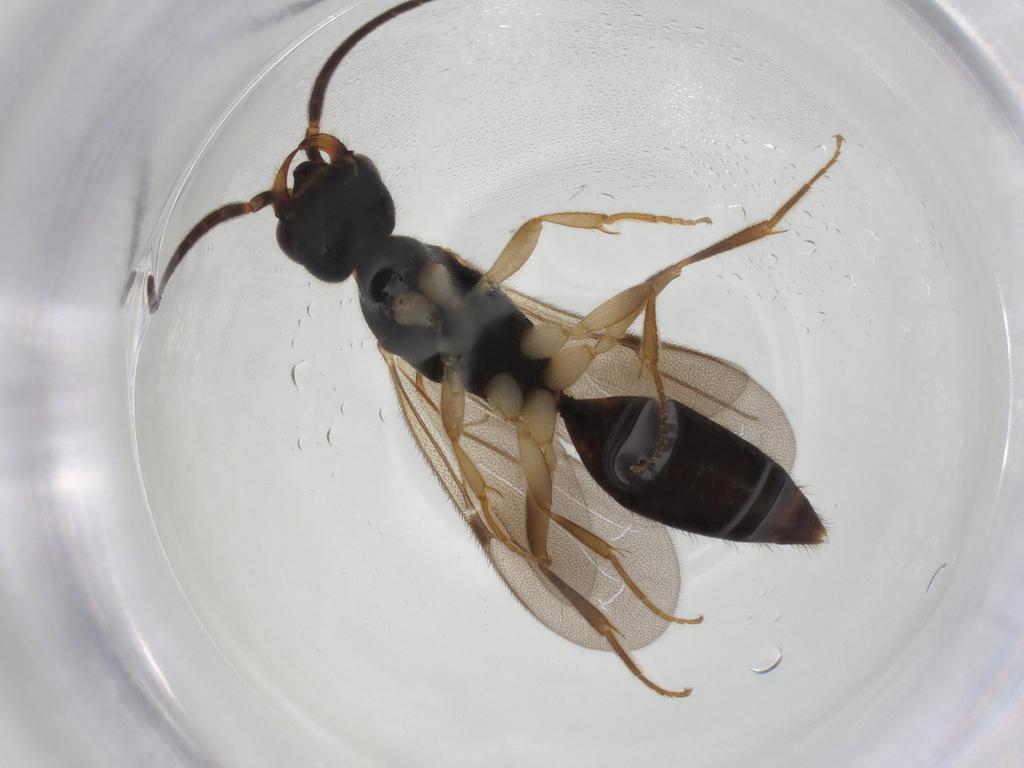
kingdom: Animalia
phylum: Arthropoda
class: Insecta
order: Hymenoptera
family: Bethylidae
